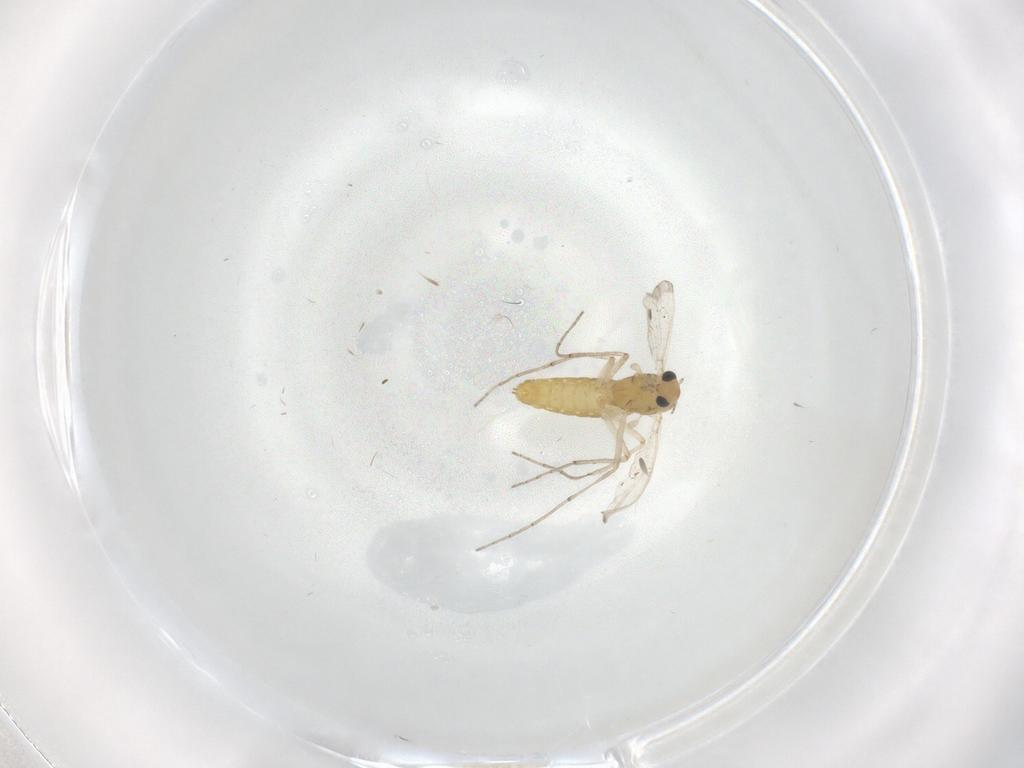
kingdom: Animalia
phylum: Arthropoda
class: Insecta
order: Diptera
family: Chironomidae
